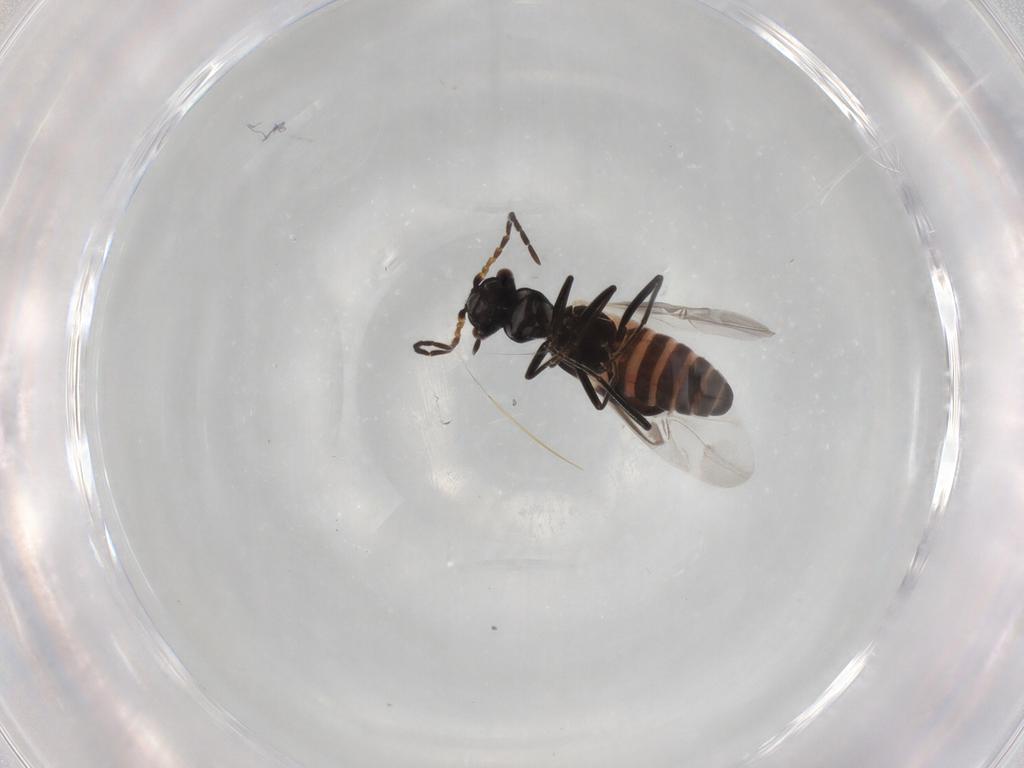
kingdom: Animalia
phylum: Arthropoda
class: Insecta
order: Coleoptera
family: Melyridae
